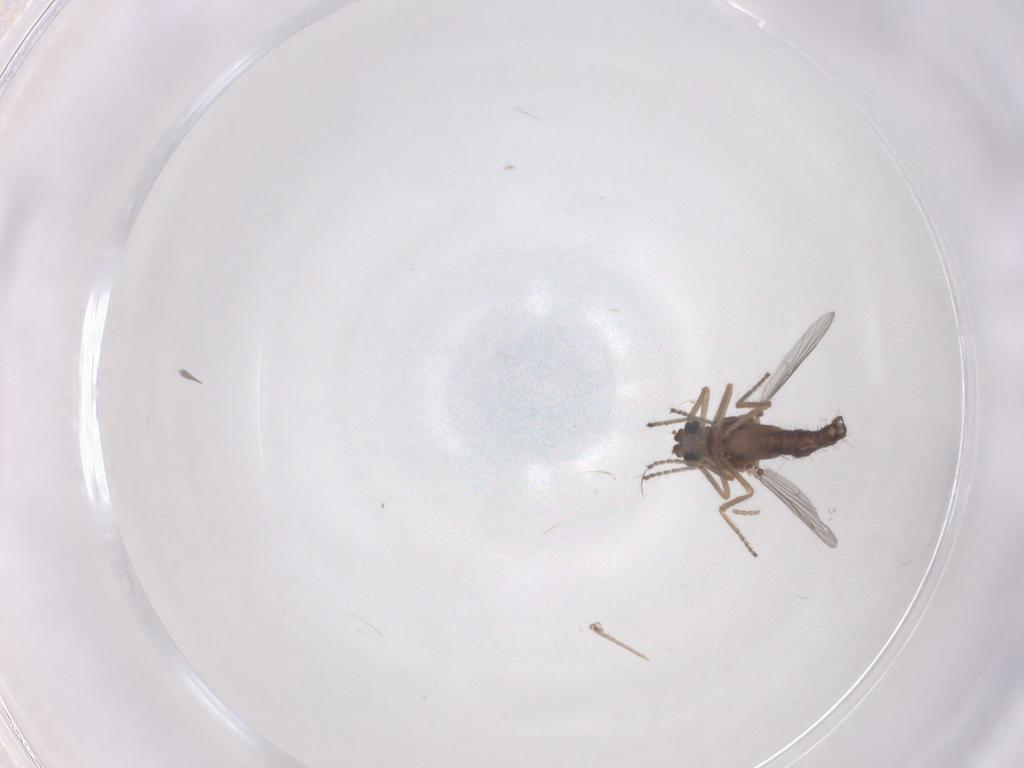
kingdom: Animalia
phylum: Arthropoda
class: Insecta
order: Diptera
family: Ceratopogonidae
